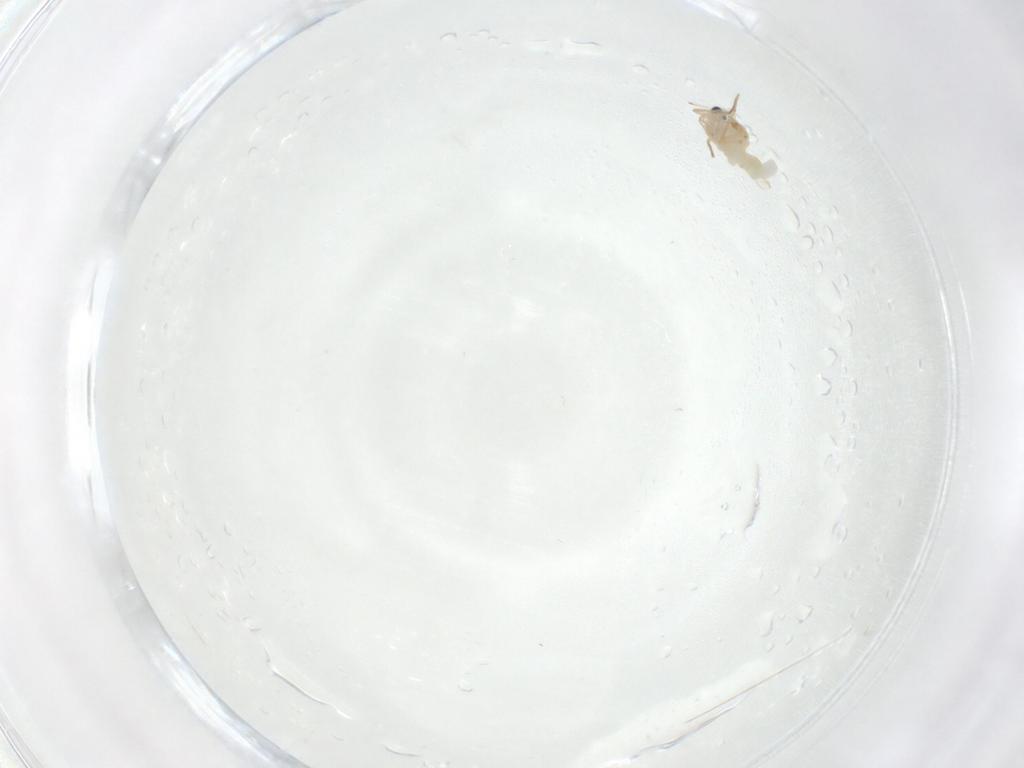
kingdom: Animalia
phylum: Arthropoda
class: Insecta
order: Diptera
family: Chironomidae
